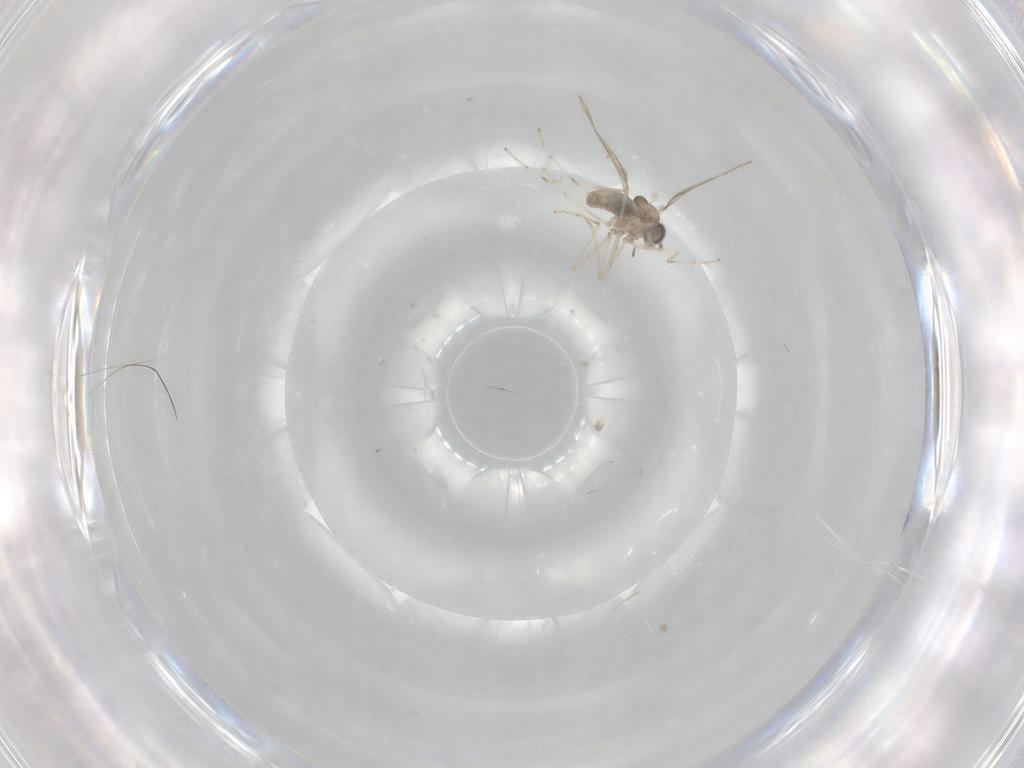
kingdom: Animalia
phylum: Arthropoda
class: Insecta
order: Diptera
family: Cecidomyiidae
